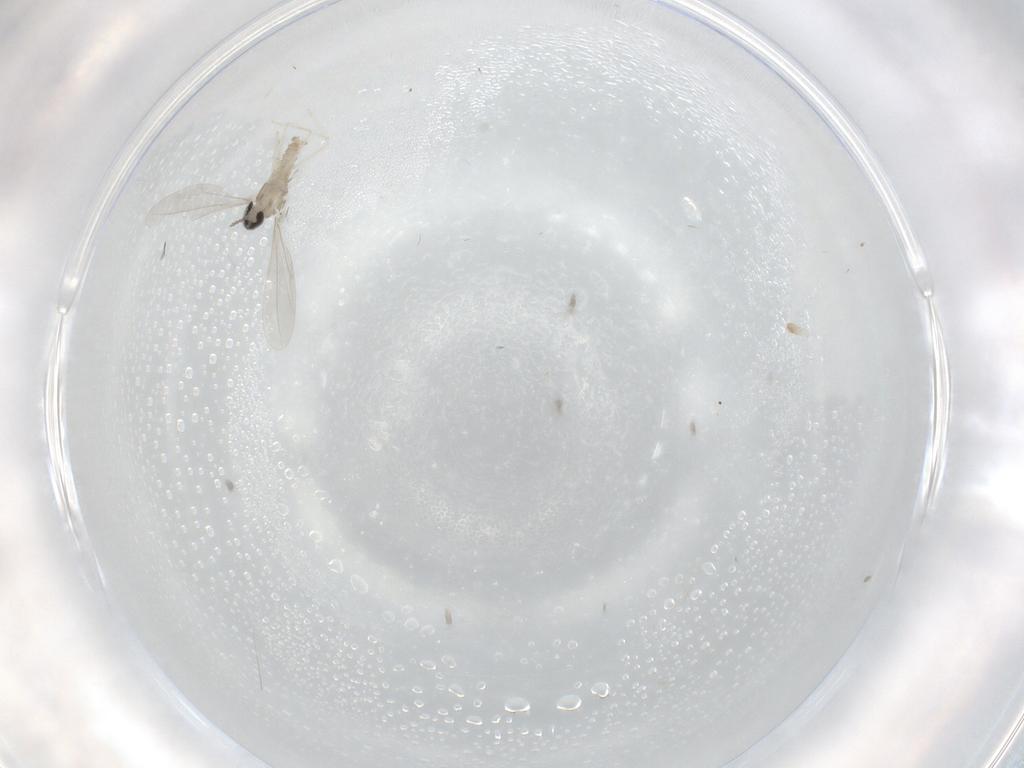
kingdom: Animalia
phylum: Arthropoda
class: Insecta
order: Diptera
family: Cecidomyiidae
